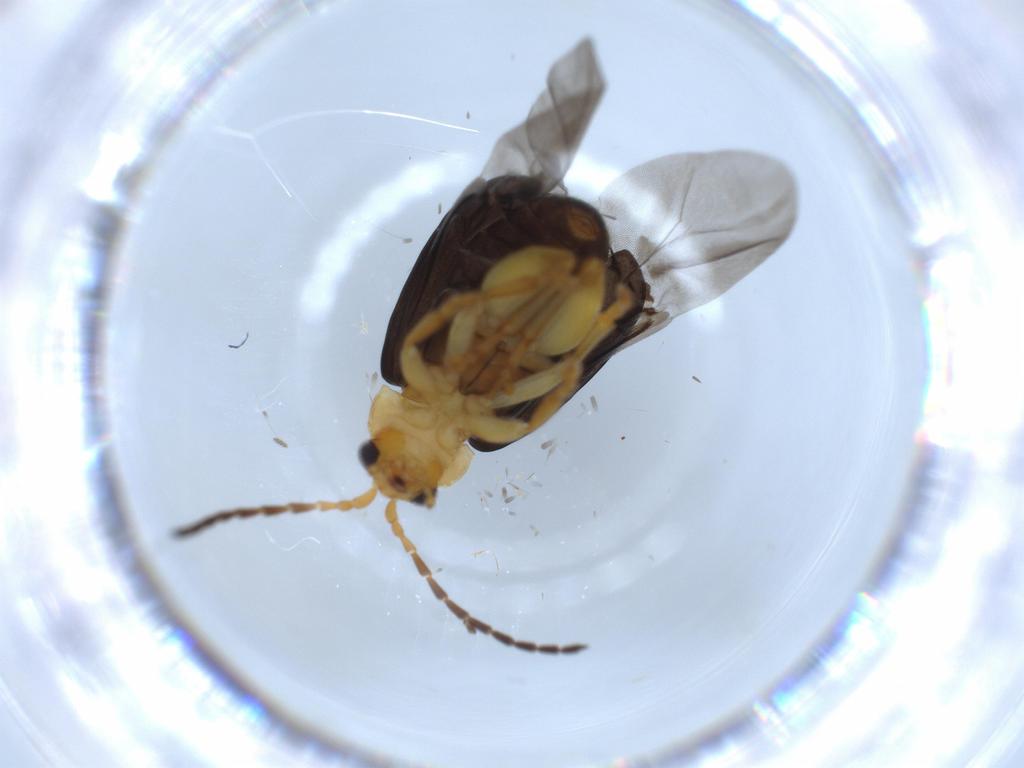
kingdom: Animalia
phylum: Arthropoda
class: Insecta
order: Coleoptera
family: Chrysomelidae
